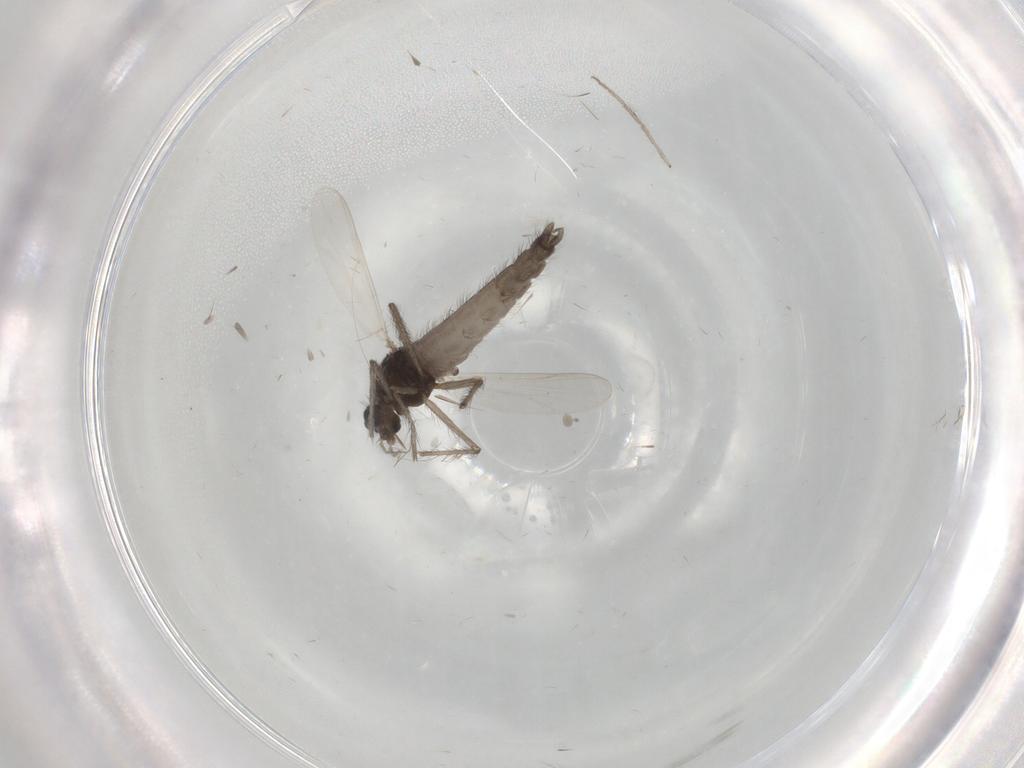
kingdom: Animalia
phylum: Arthropoda
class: Insecta
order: Diptera
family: Chironomidae
